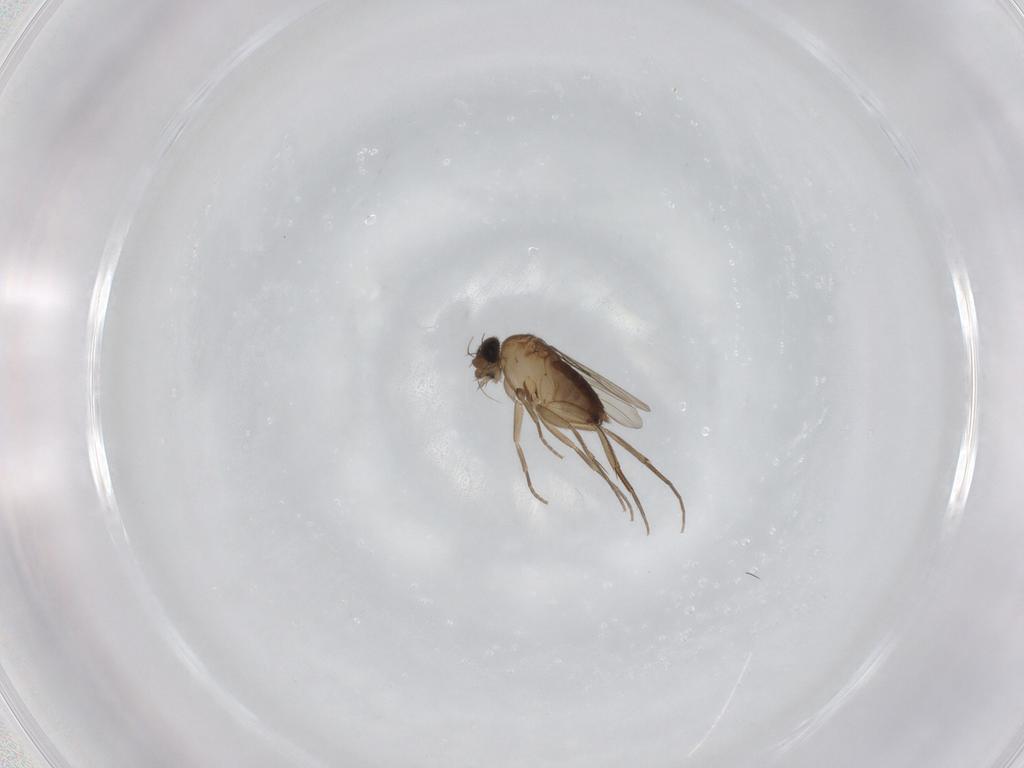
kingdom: Animalia
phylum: Arthropoda
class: Insecta
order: Diptera
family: Phoridae
